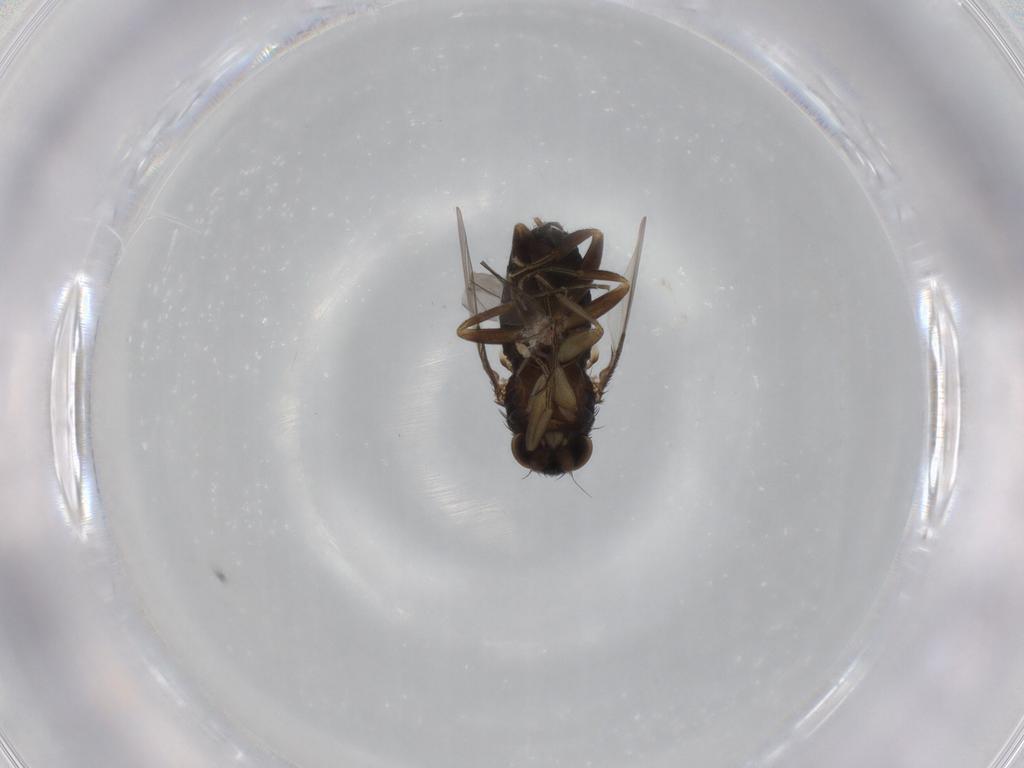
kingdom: Animalia
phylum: Arthropoda
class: Insecta
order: Diptera
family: Phoridae
